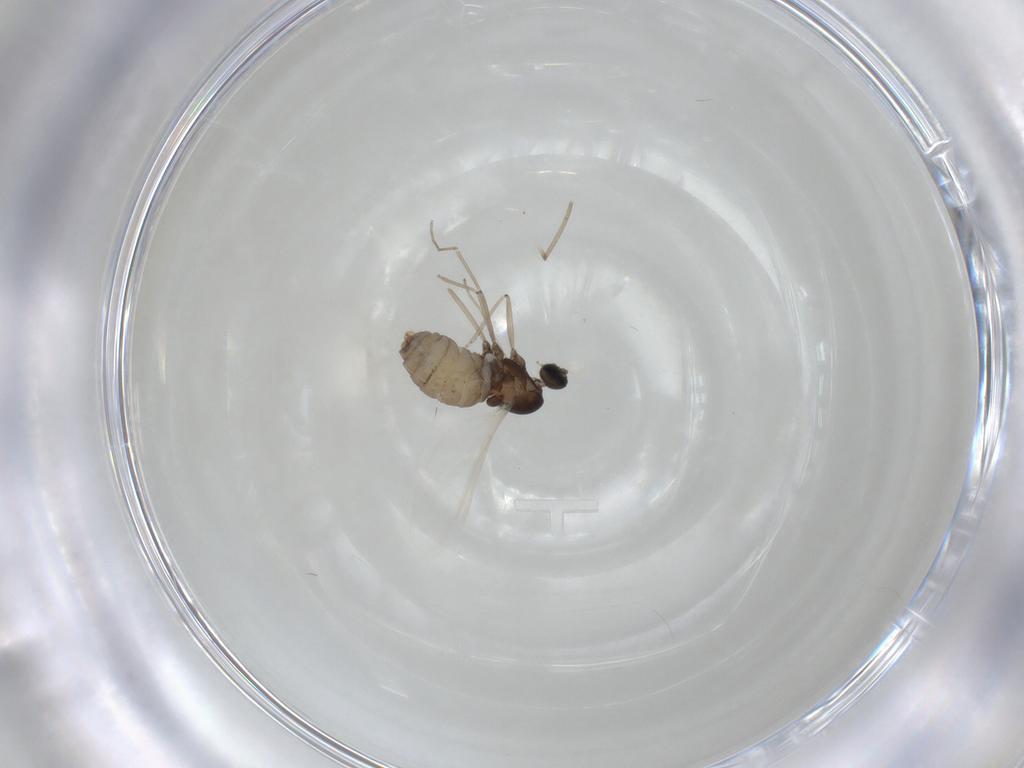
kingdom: Animalia
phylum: Arthropoda
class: Insecta
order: Diptera
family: Cecidomyiidae
